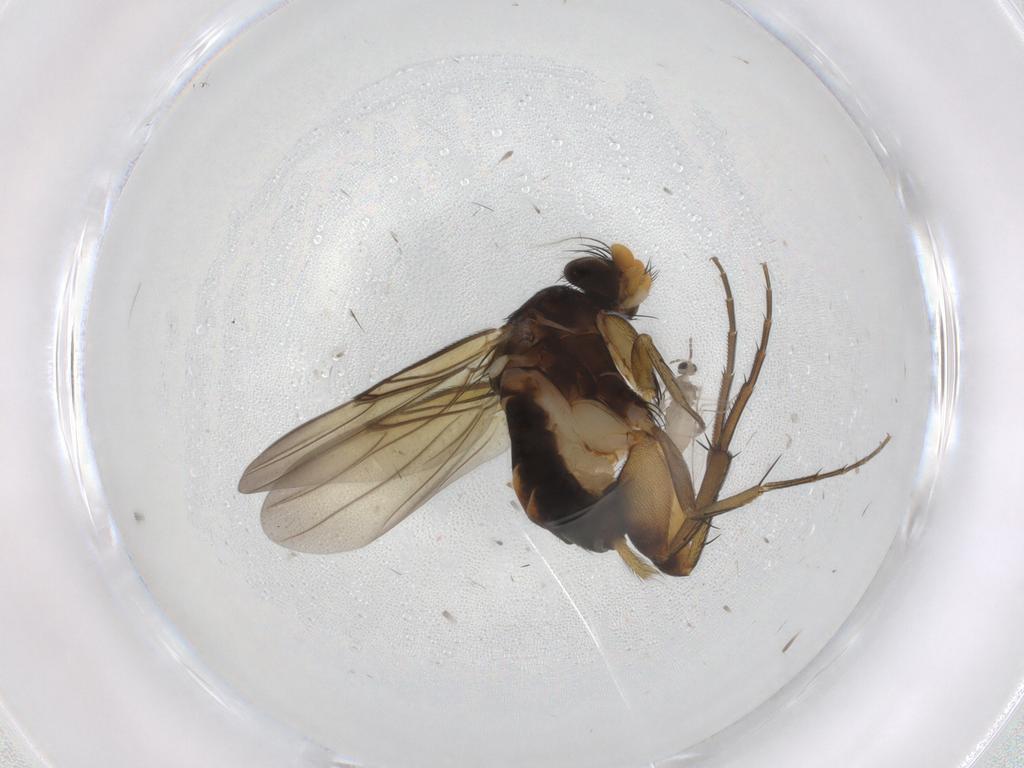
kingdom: Animalia
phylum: Arthropoda
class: Insecta
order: Diptera
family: Phoridae
